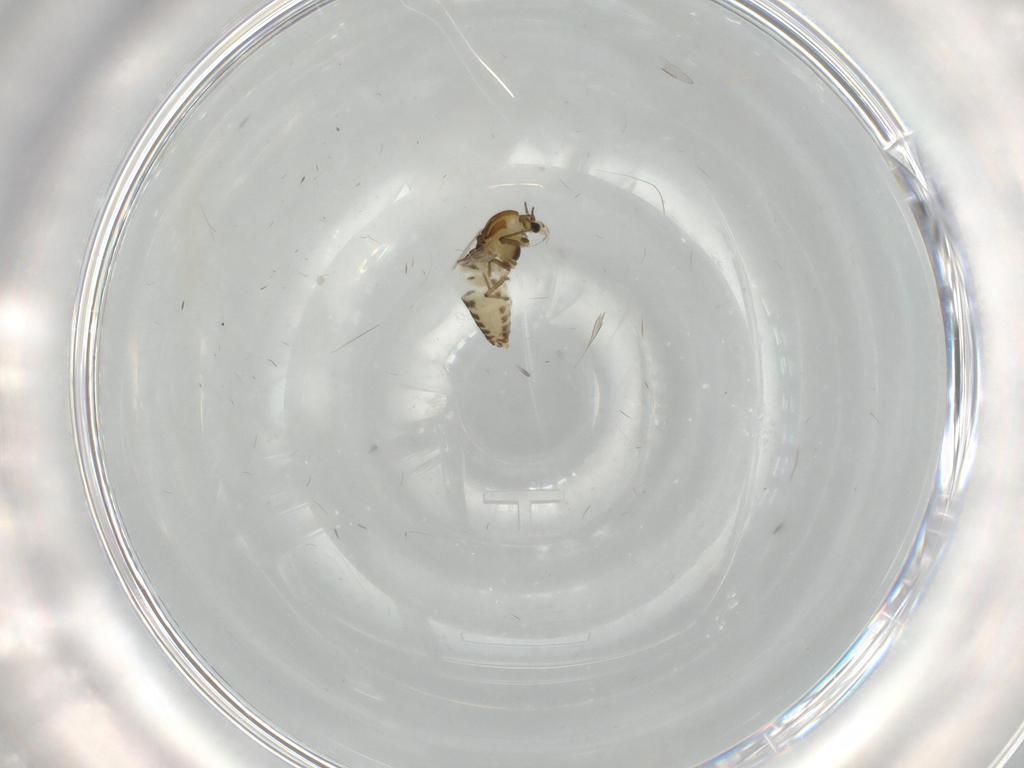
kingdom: Animalia
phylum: Arthropoda
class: Insecta
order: Diptera
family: Chironomidae
